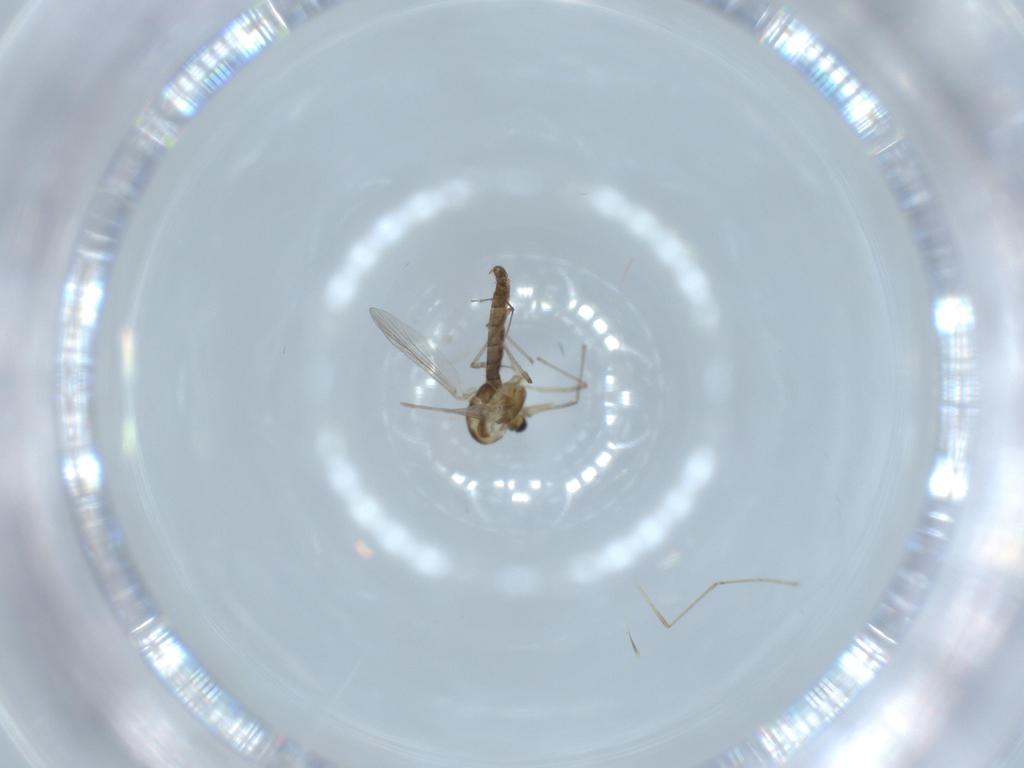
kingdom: Animalia
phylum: Arthropoda
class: Insecta
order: Diptera
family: Cecidomyiidae
